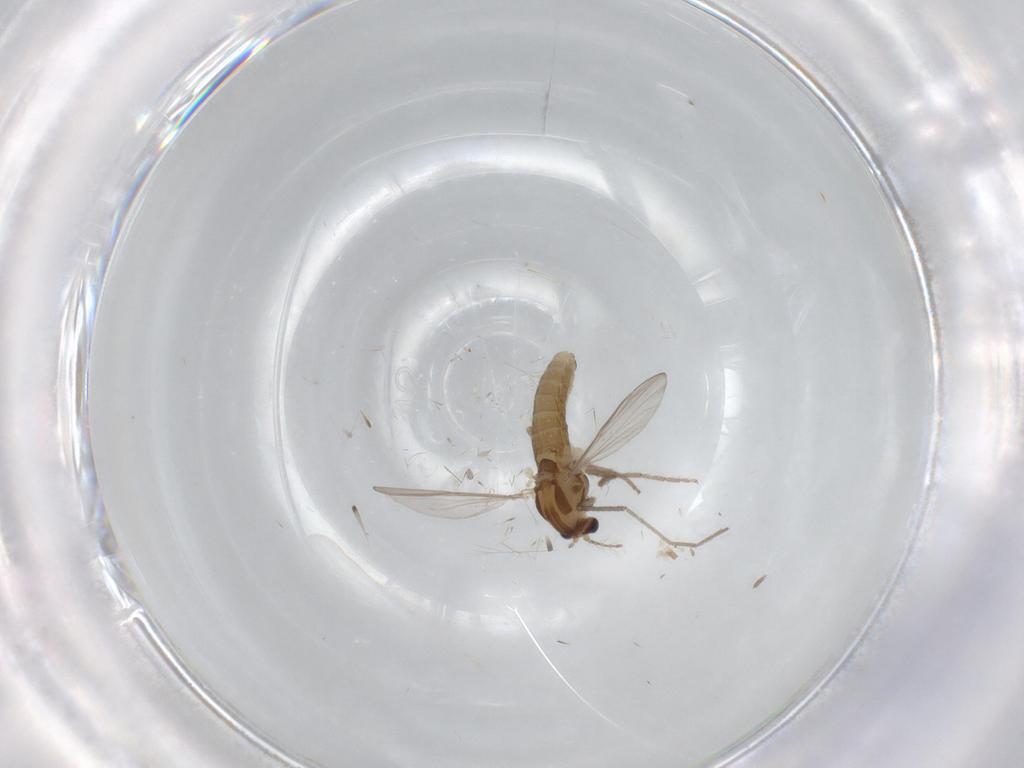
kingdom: Animalia
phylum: Arthropoda
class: Insecta
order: Diptera
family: Chironomidae
